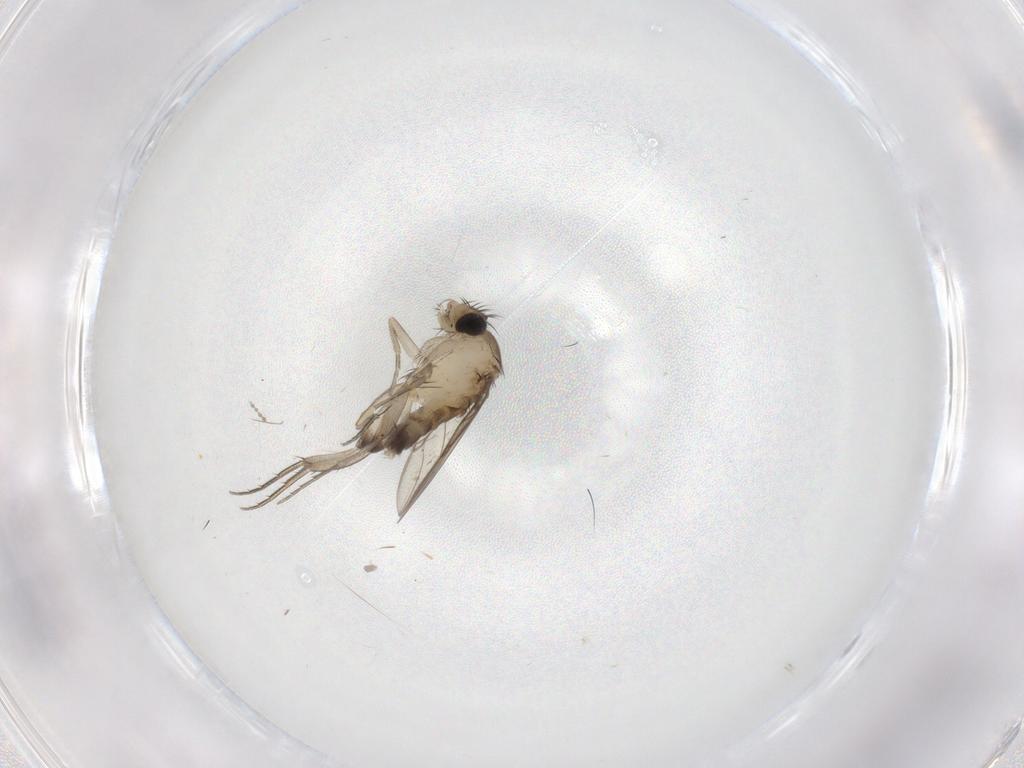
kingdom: Animalia
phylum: Arthropoda
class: Insecta
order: Diptera
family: Phoridae
